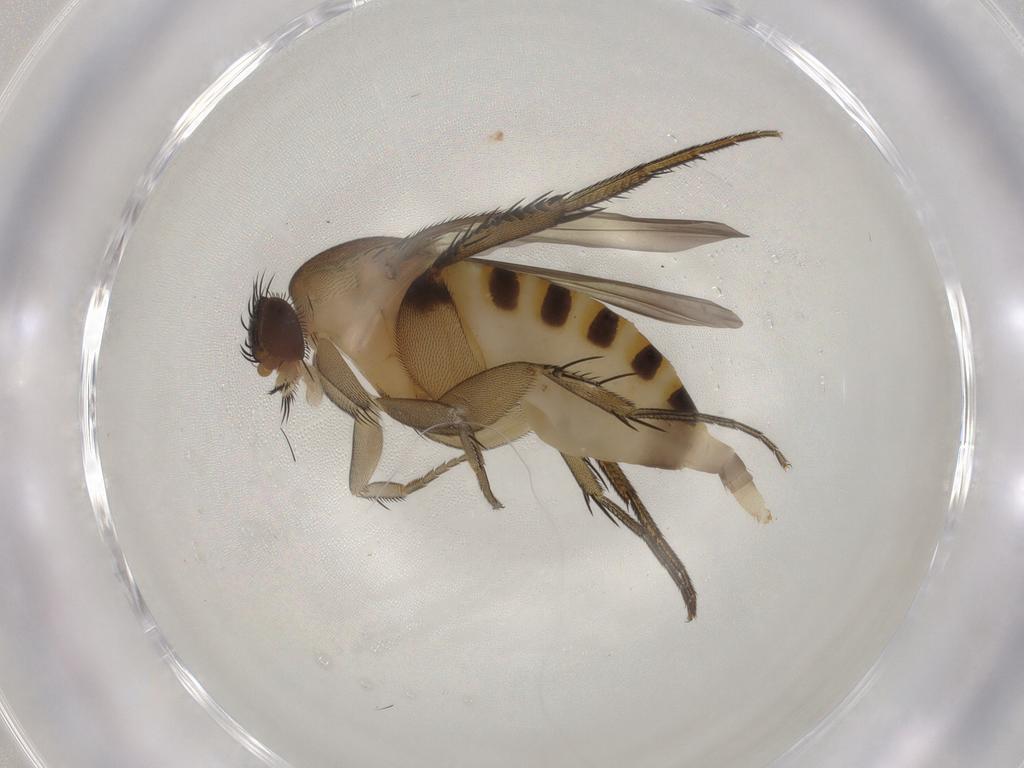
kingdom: Animalia
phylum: Arthropoda
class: Insecta
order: Diptera
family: Phoridae
